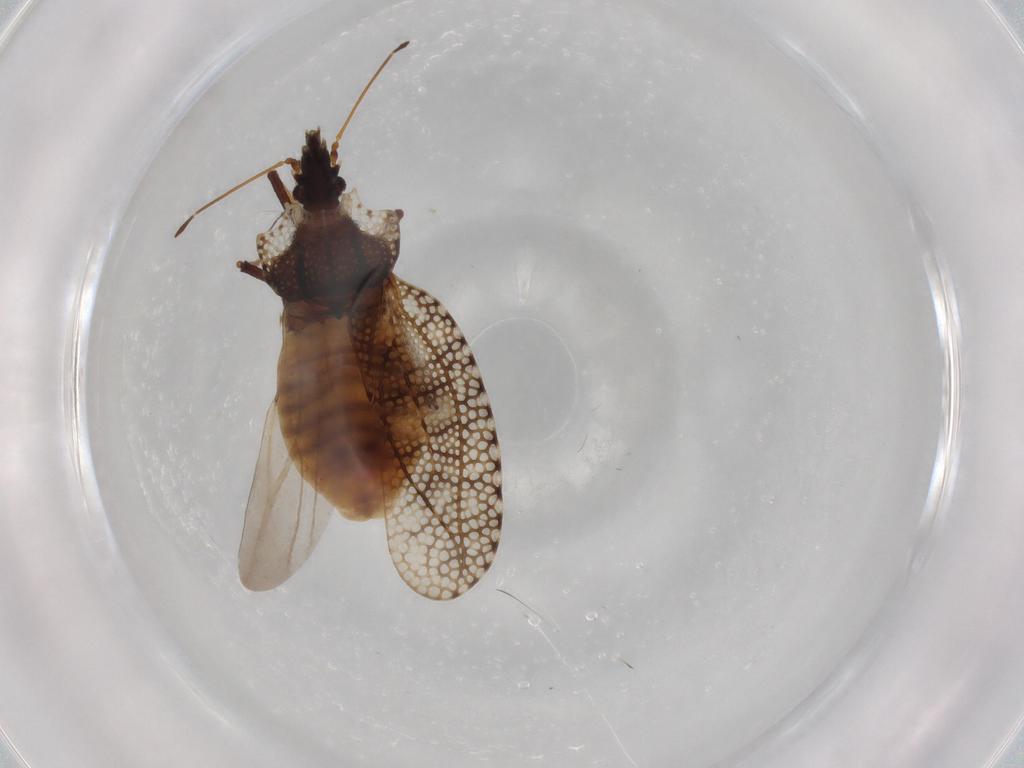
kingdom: Animalia
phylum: Arthropoda
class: Insecta
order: Hemiptera
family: Tingidae
